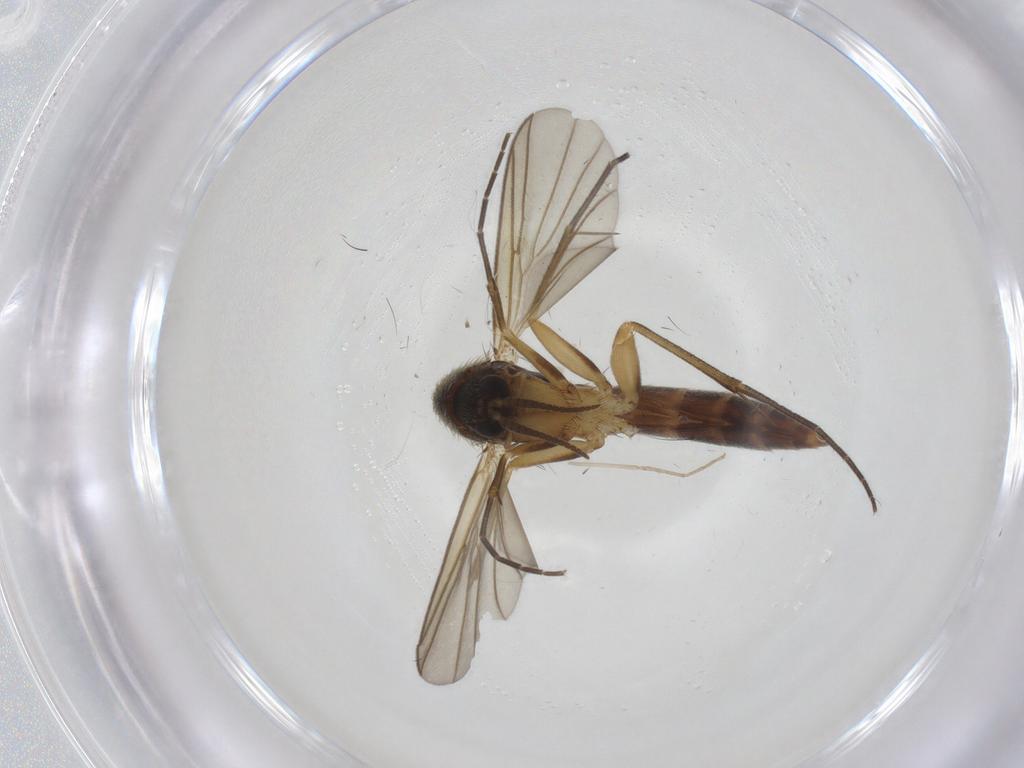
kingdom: Animalia
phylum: Arthropoda
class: Insecta
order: Diptera
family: Cecidomyiidae
